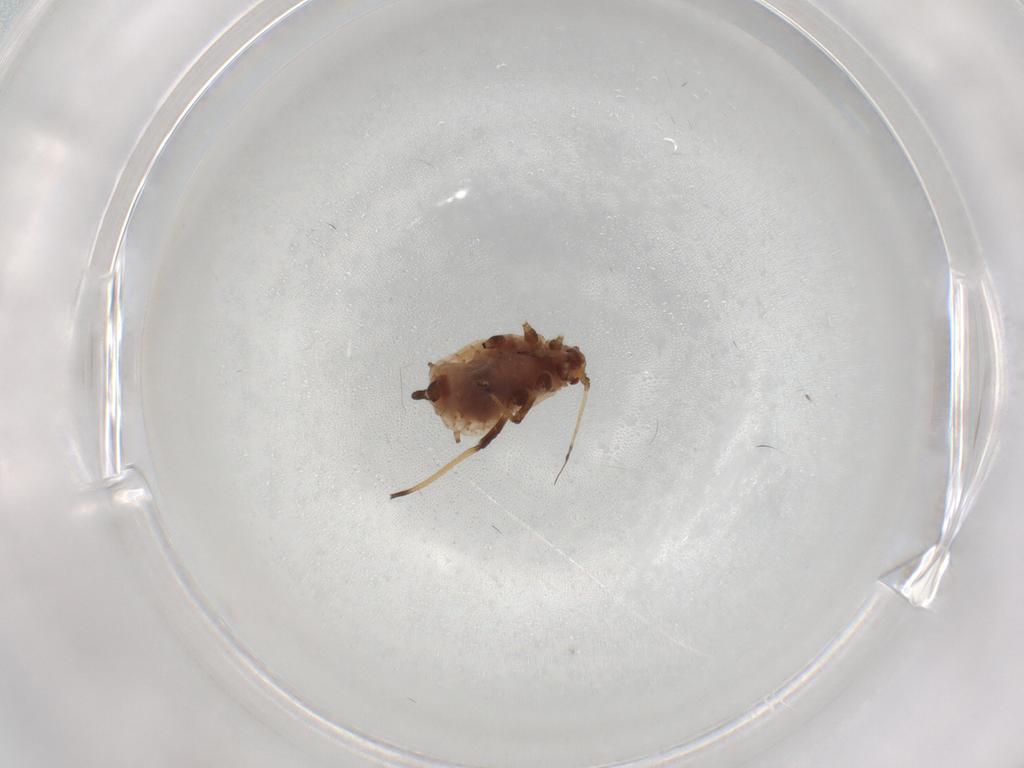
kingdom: Animalia
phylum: Arthropoda
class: Insecta
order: Hemiptera
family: Aphididae
